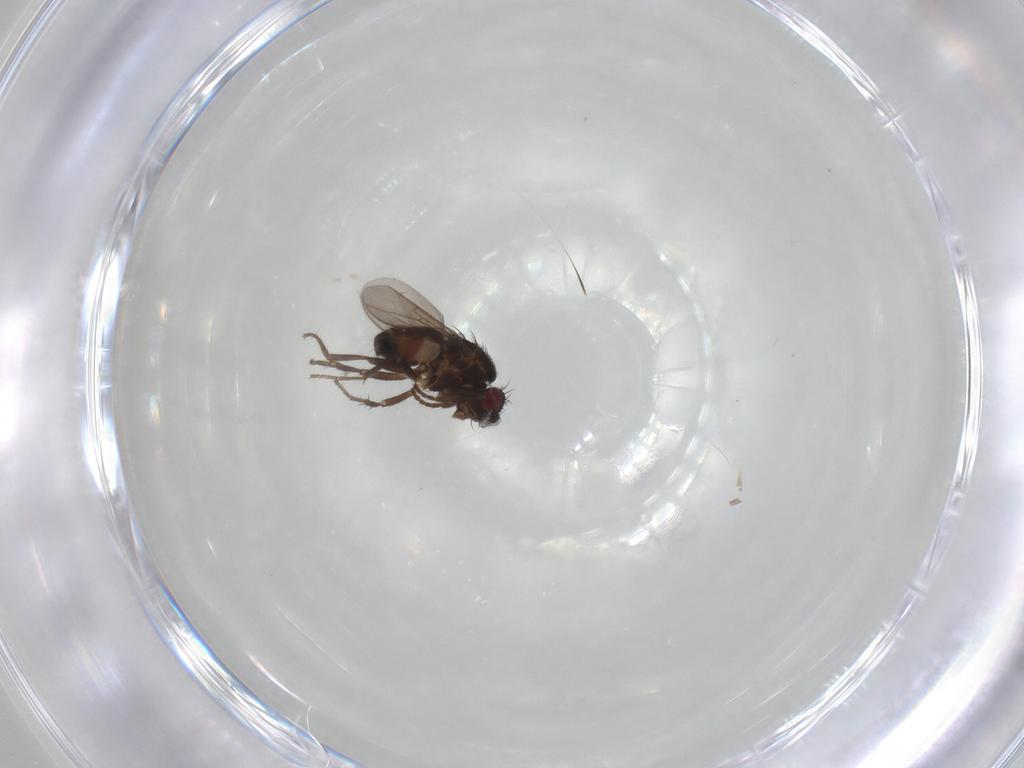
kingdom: Animalia
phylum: Arthropoda
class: Insecta
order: Diptera
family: Sphaeroceridae
